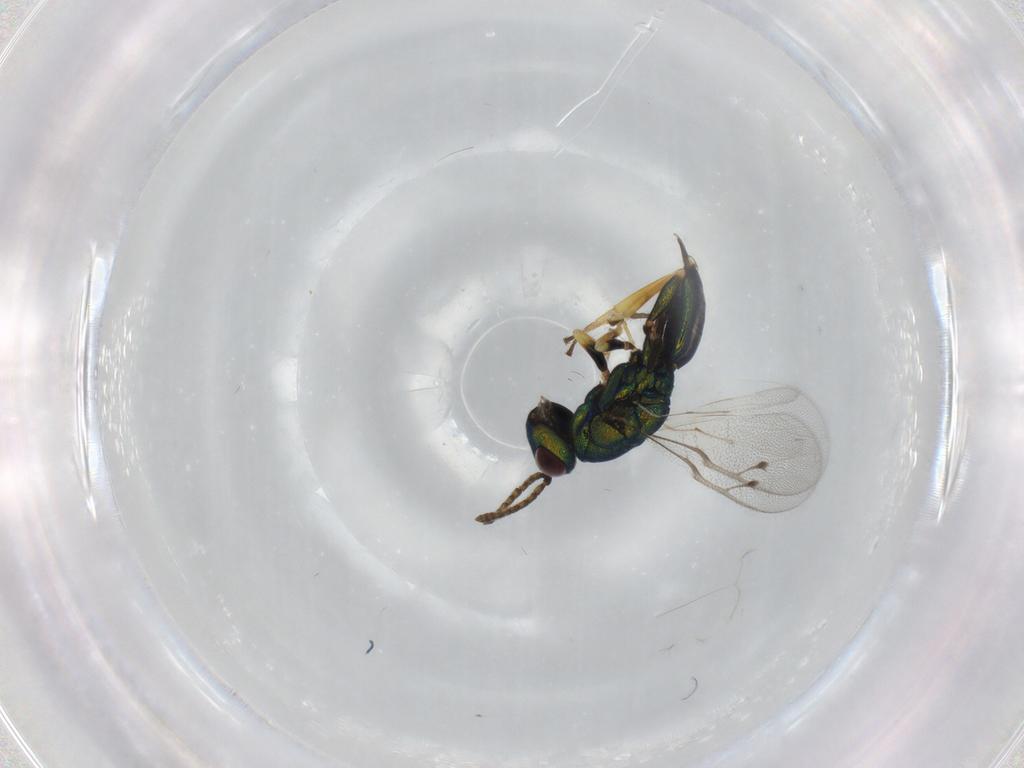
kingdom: Animalia
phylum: Arthropoda
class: Insecta
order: Hymenoptera
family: Pteromalidae
